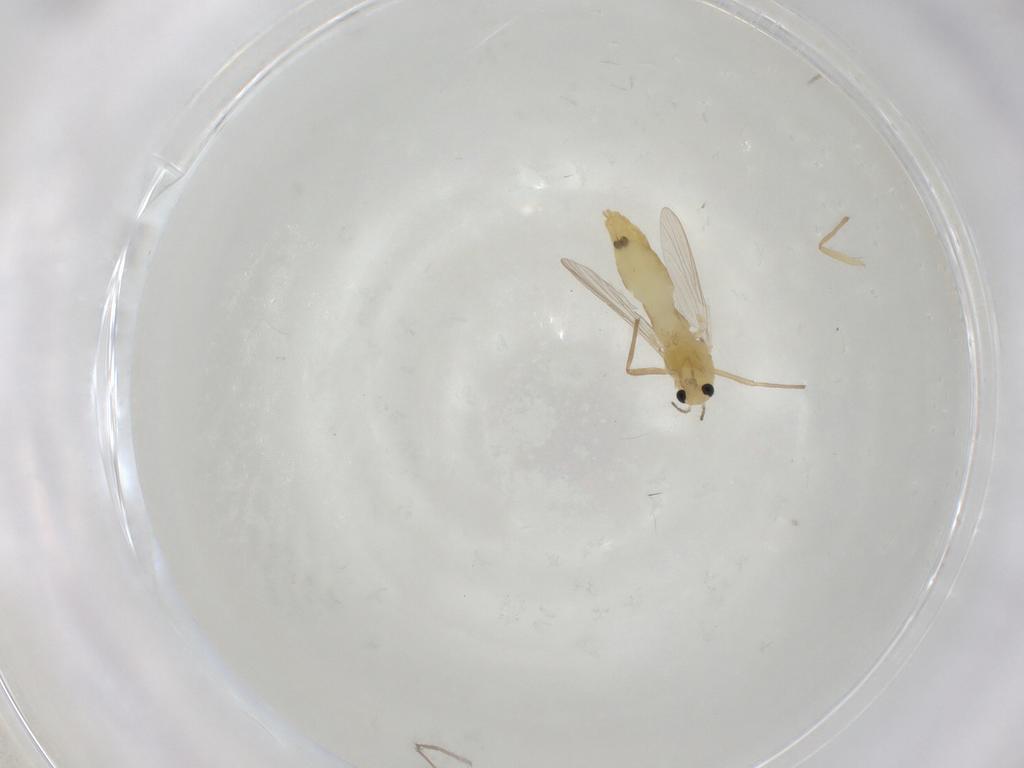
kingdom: Animalia
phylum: Arthropoda
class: Insecta
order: Diptera
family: Chironomidae
